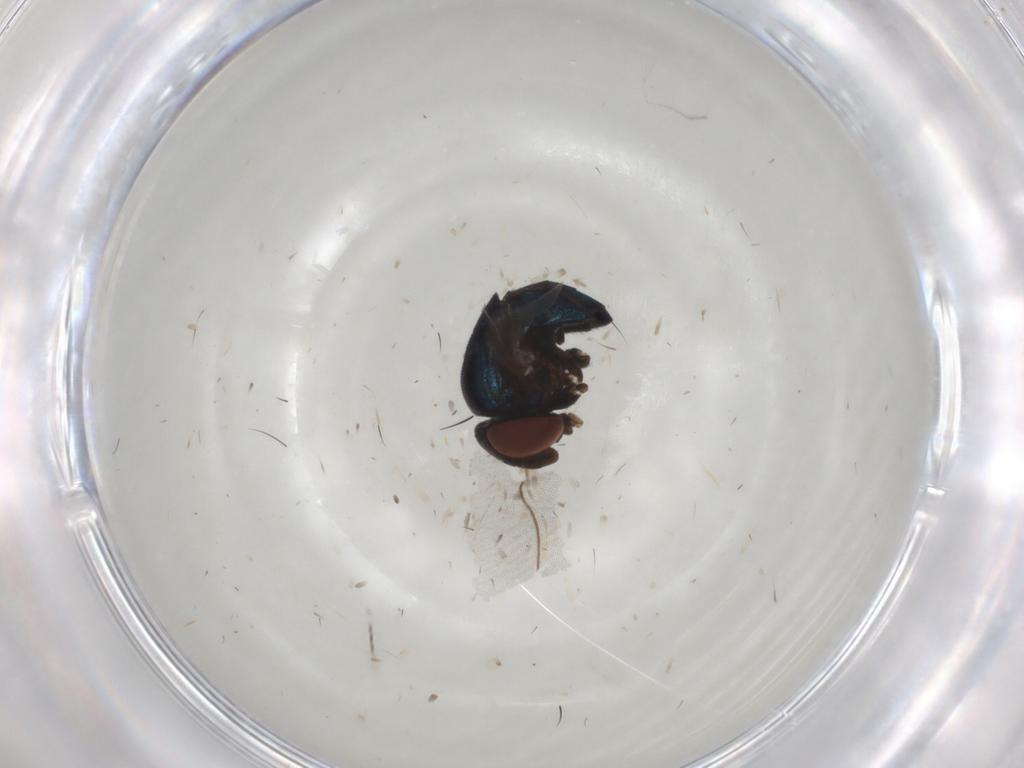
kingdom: Animalia
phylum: Arthropoda
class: Insecta
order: Diptera
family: Cryptochetidae
